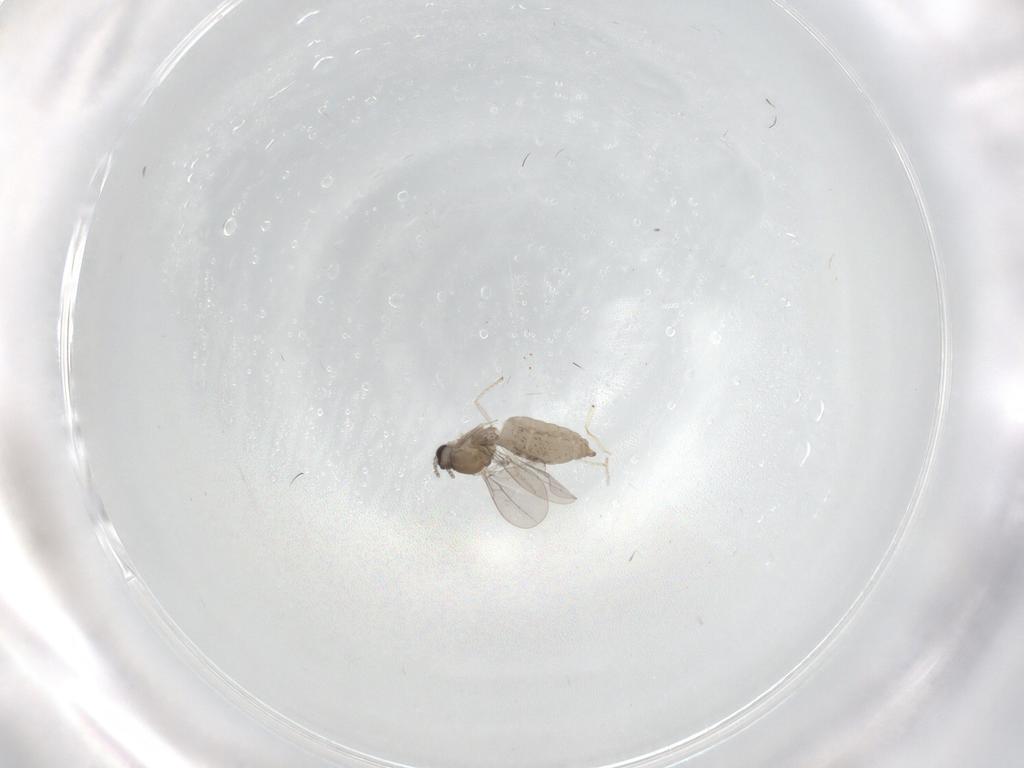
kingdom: Animalia
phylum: Arthropoda
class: Insecta
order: Diptera
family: Cecidomyiidae
